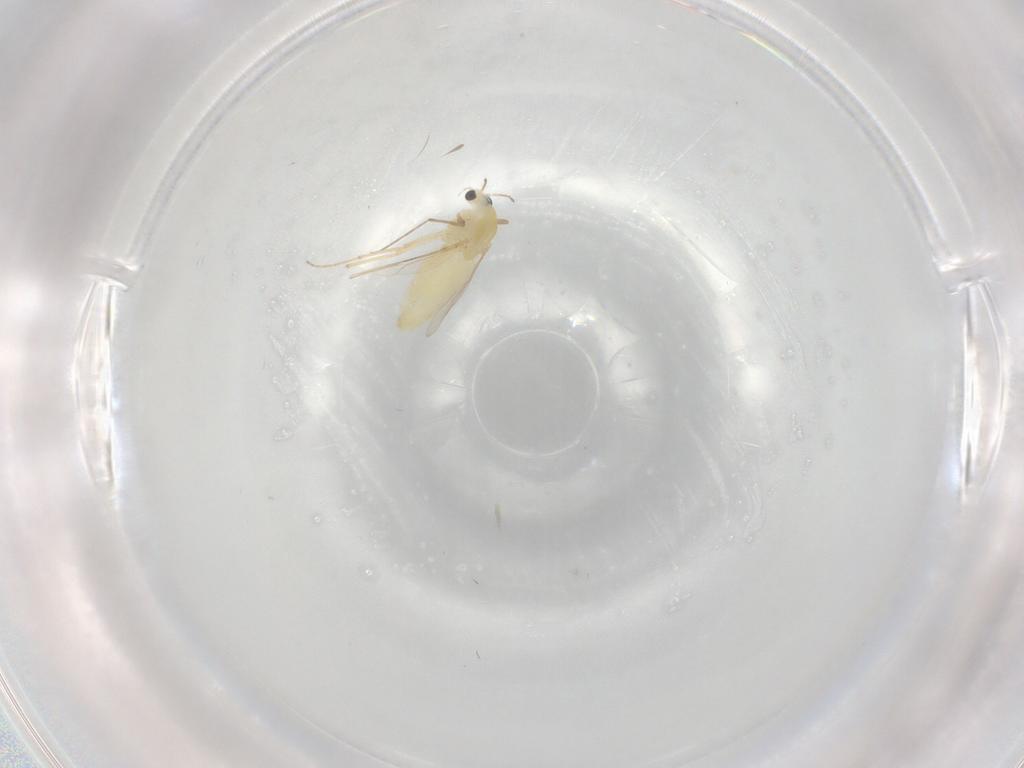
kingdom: Animalia
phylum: Arthropoda
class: Insecta
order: Diptera
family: Chironomidae
